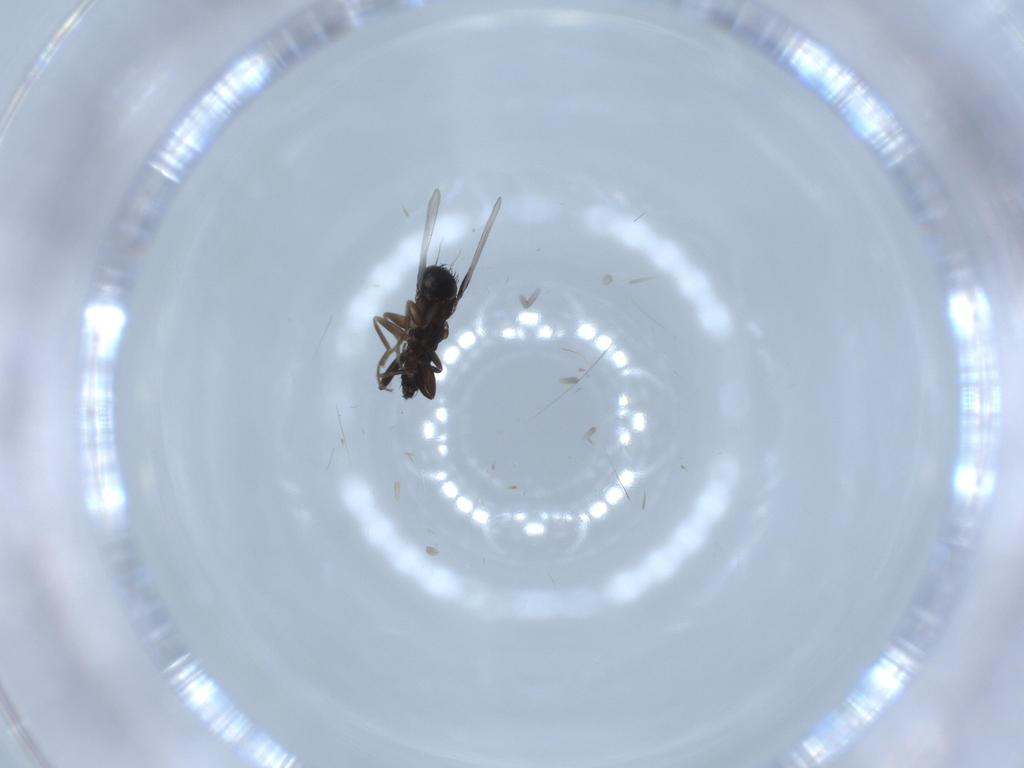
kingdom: Animalia
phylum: Arthropoda
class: Insecta
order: Diptera
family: Phoridae
